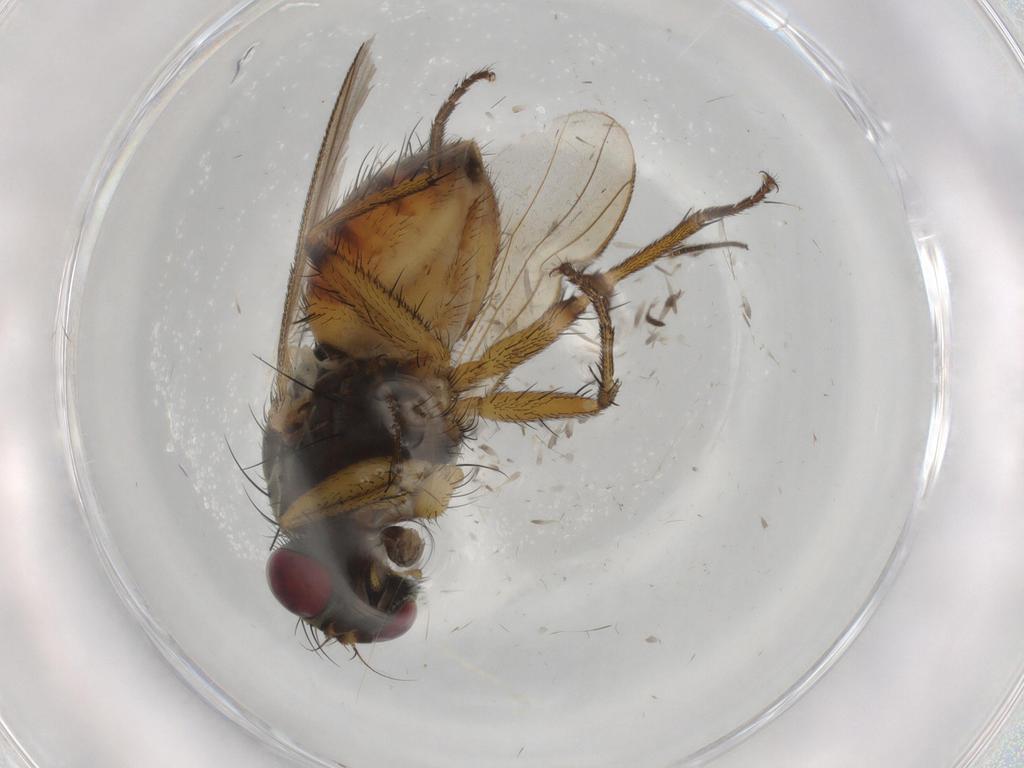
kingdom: Animalia
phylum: Arthropoda
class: Insecta
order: Diptera
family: Muscidae
